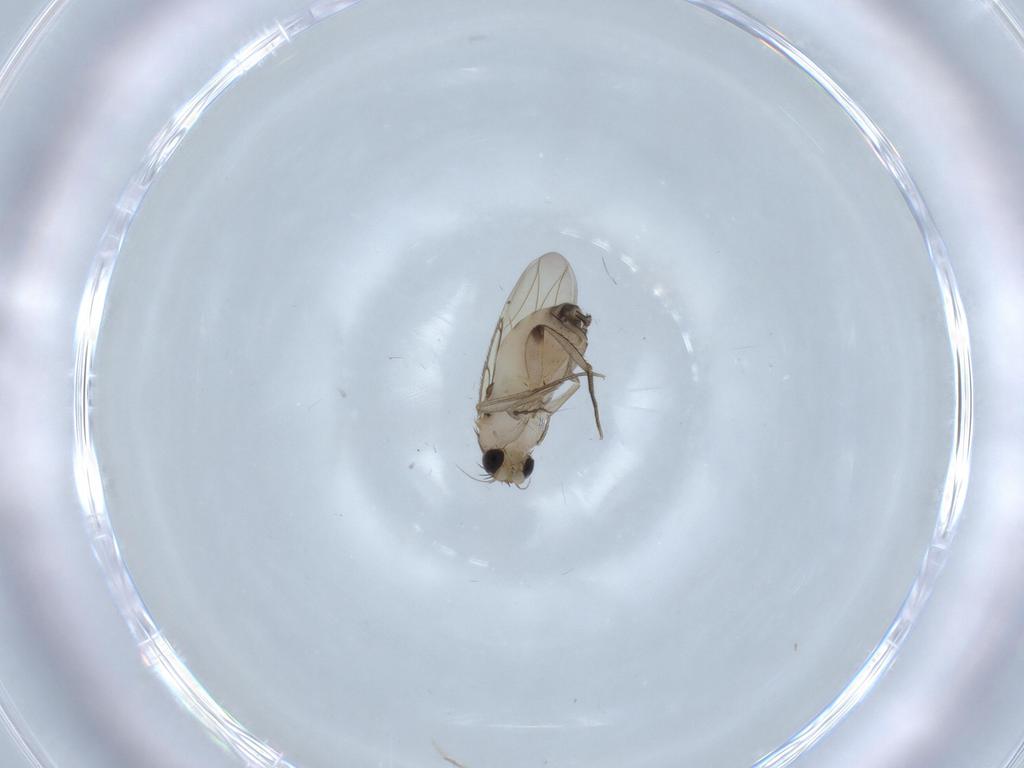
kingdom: Animalia
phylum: Arthropoda
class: Insecta
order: Diptera
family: Phoridae
